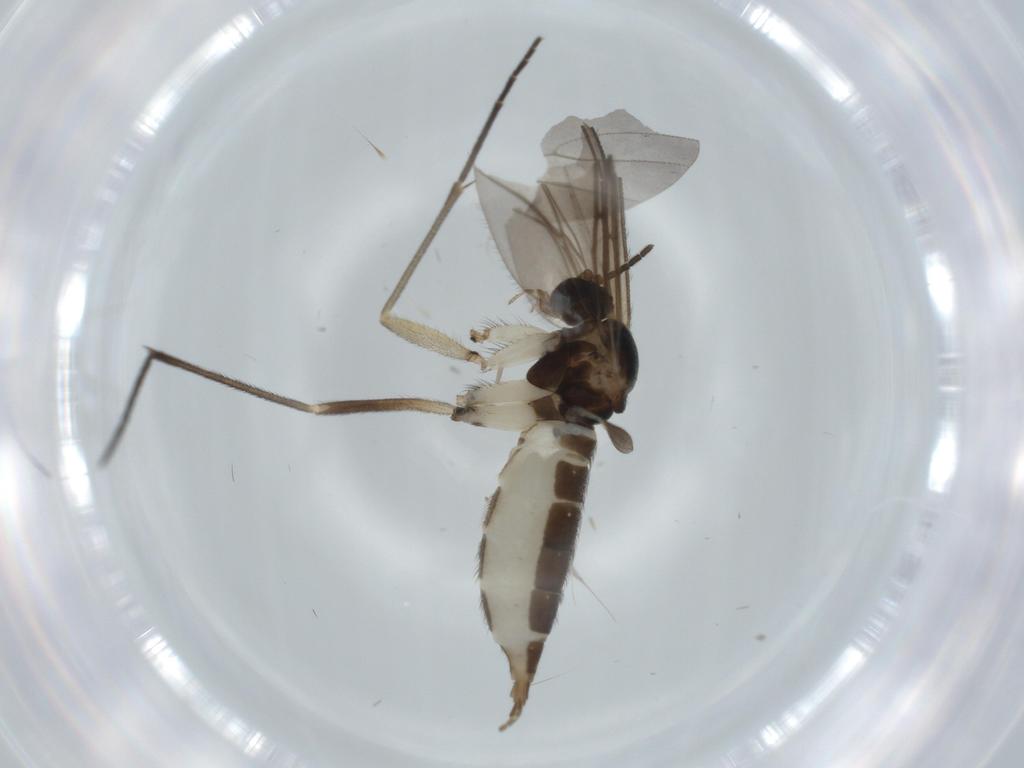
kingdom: Animalia
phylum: Arthropoda
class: Insecta
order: Diptera
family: Sciaridae
